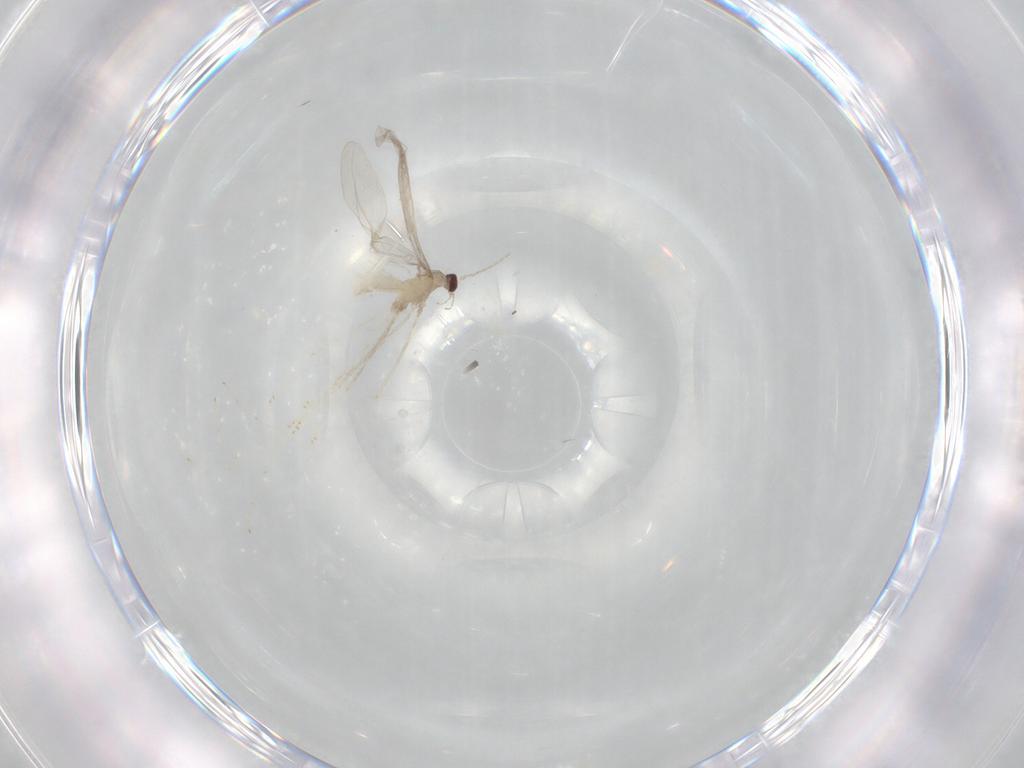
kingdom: Animalia
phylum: Arthropoda
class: Insecta
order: Diptera
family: Cecidomyiidae
